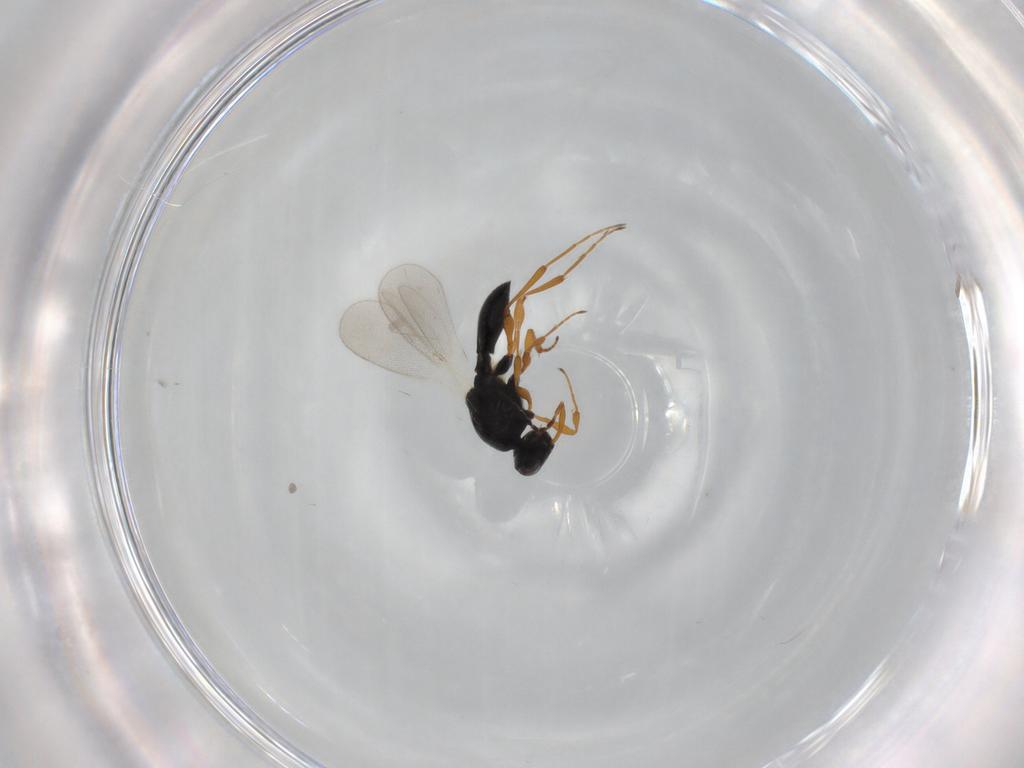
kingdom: Animalia
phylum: Arthropoda
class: Insecta
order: Hymenoptera
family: Platygastridae
